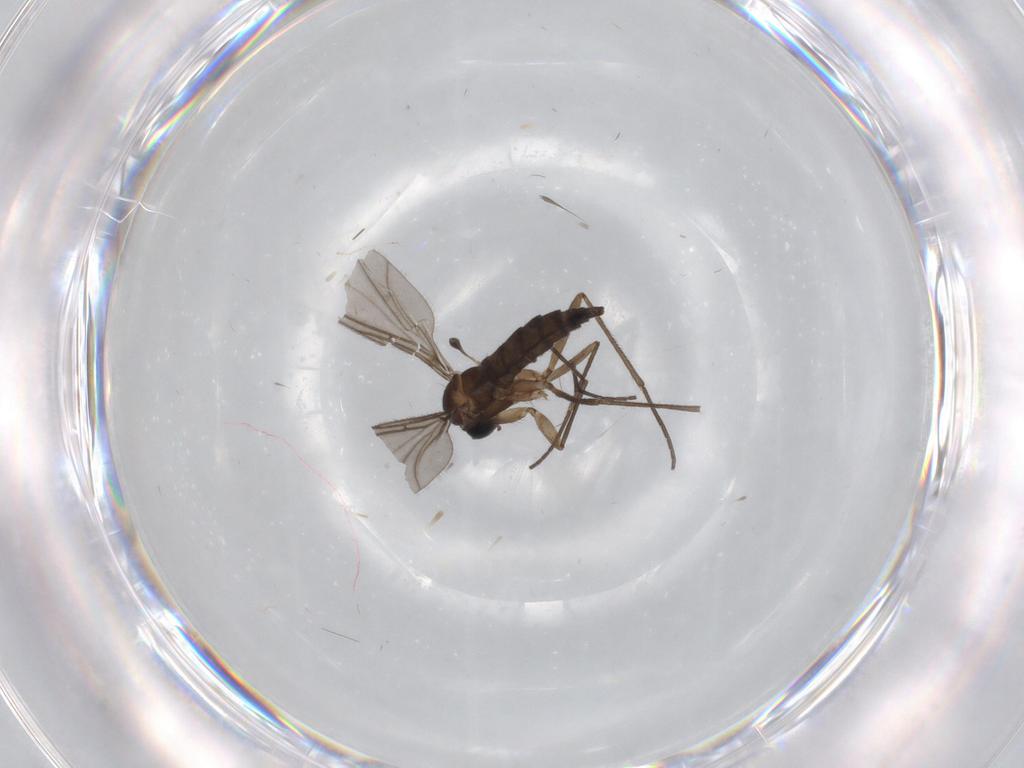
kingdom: Animalia
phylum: Arthropoda
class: Insecta
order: Diptera
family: Sciaridae
